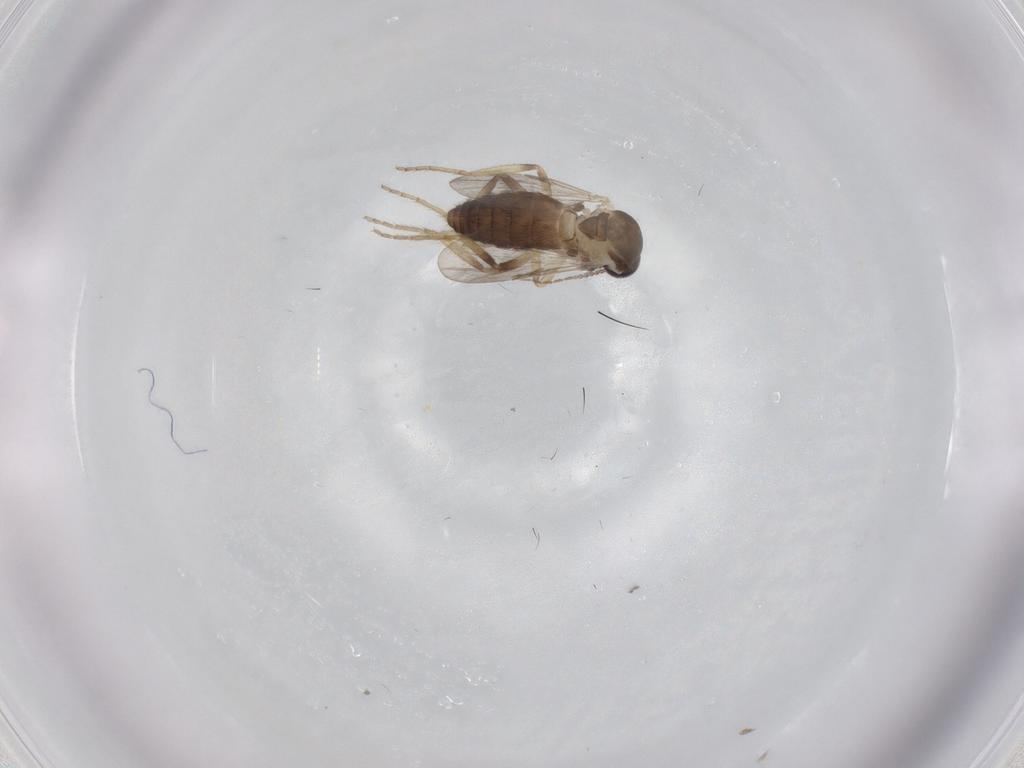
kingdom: Animalia
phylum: Arthropoda
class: Insecta
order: Diptera
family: Ceratopogonidae
